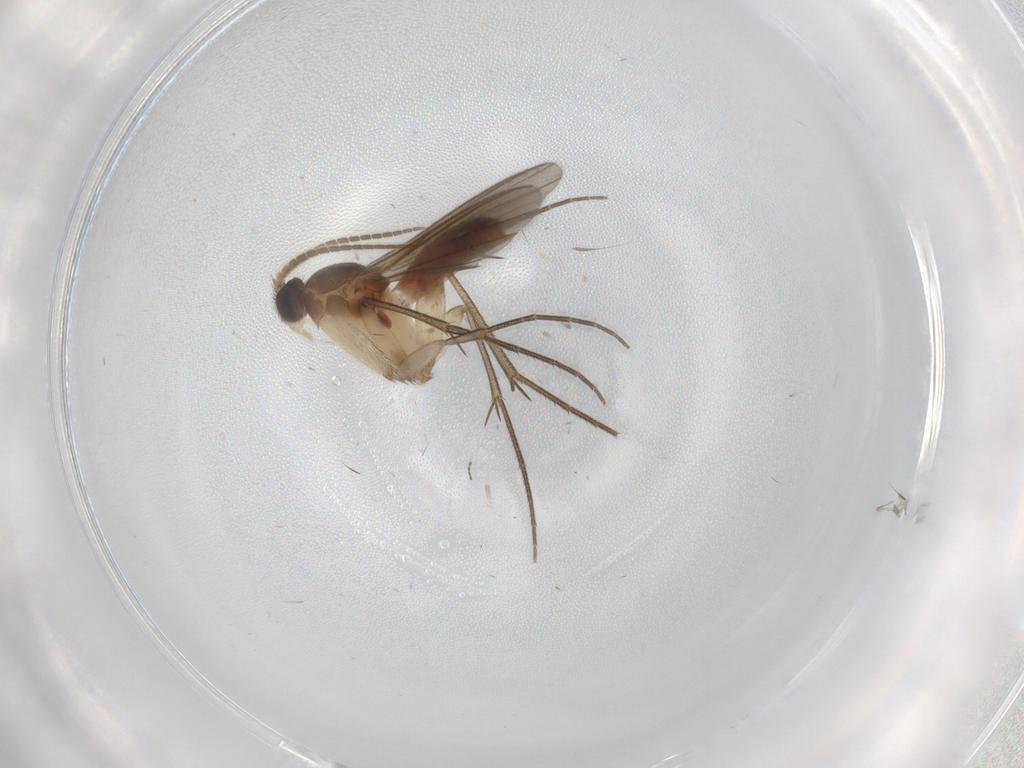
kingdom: Animalia
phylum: Arthropoda
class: Insecta
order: Diptera
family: Mycetophilidae
